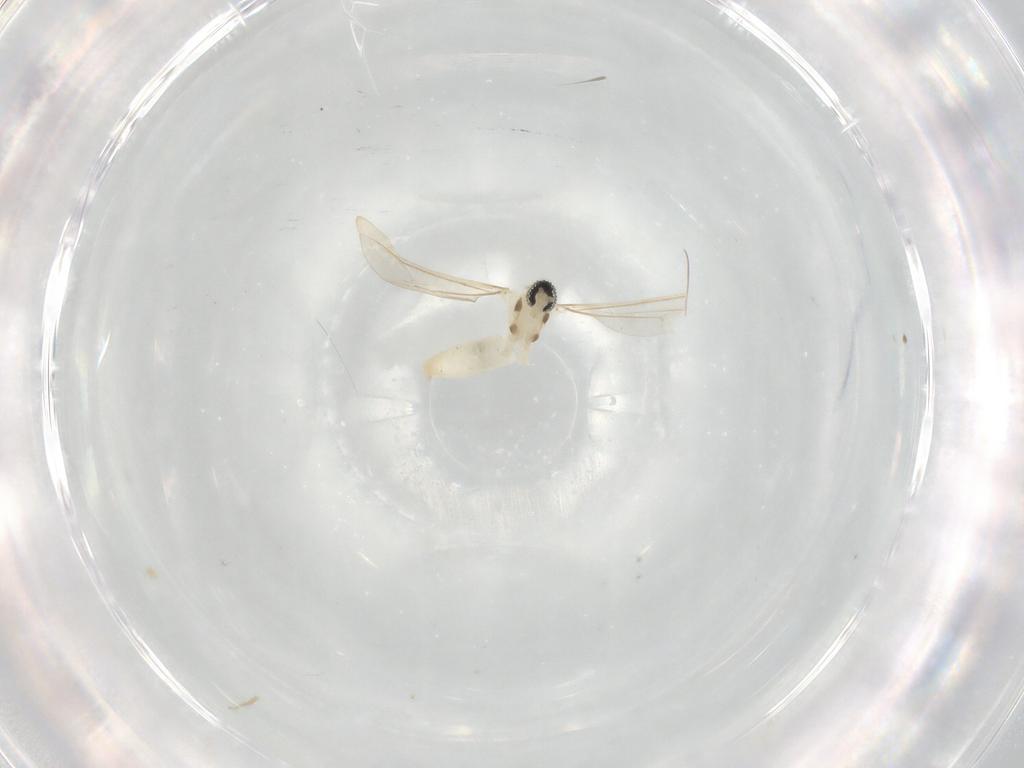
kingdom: Animalia
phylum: Arthropoda
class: Insecta
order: Diptera
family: Cecidomyiidae
